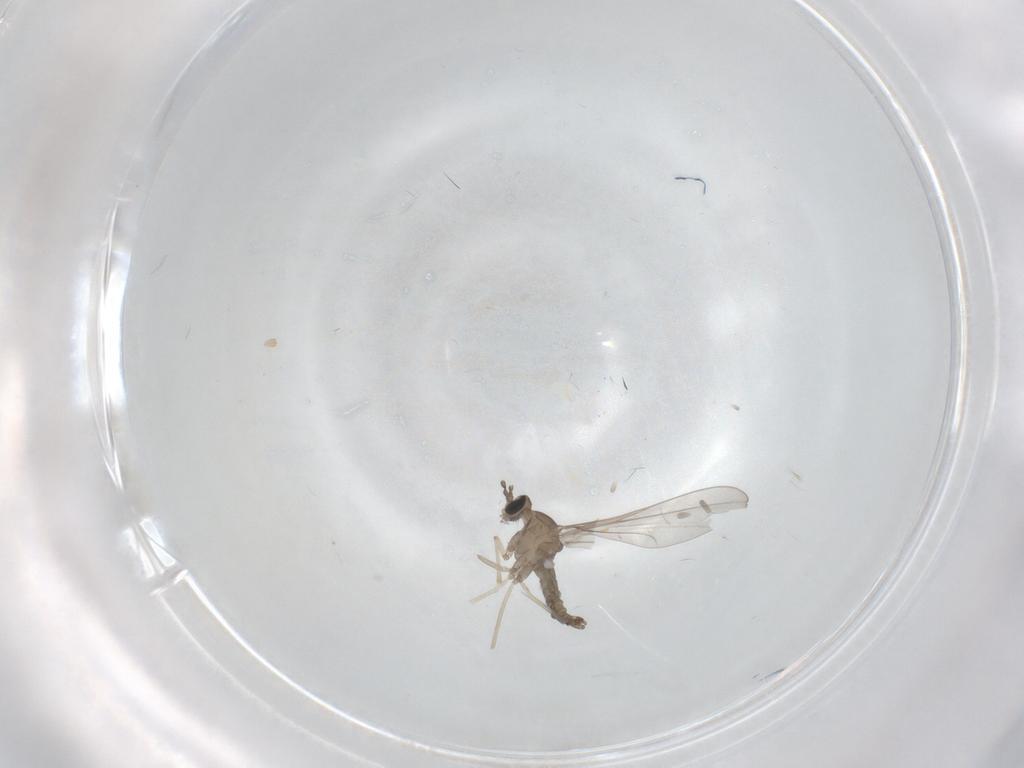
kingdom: Animalia
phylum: Arthropoda
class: Insecta
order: Diptera
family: Cecidomyiidae
